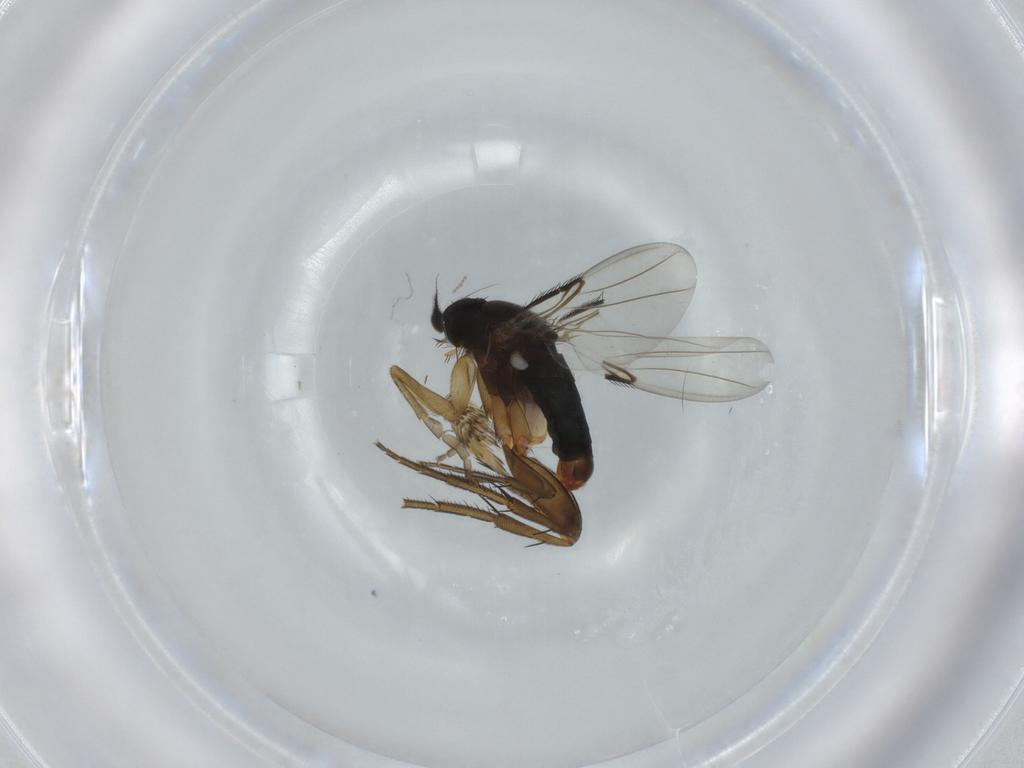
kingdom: Animalia
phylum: Arthropoda
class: Insecta
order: Diptera
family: Phoridae
